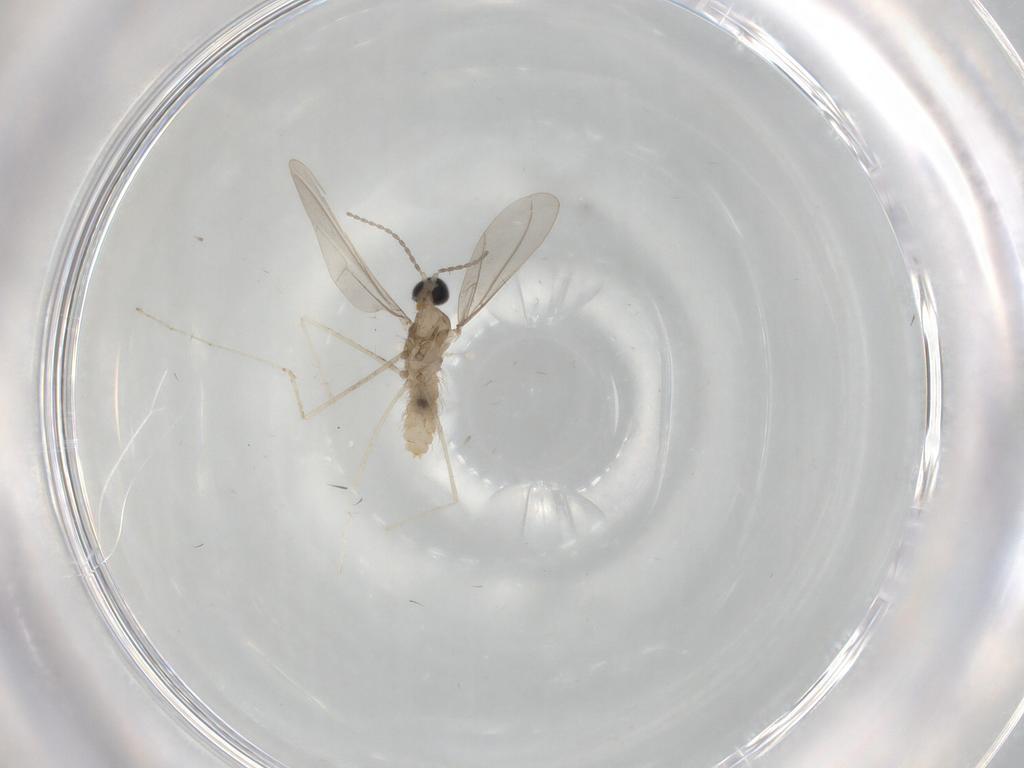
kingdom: Animalia
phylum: Arthropoda
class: Insecta
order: Diptera
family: Cecidomyiidae
